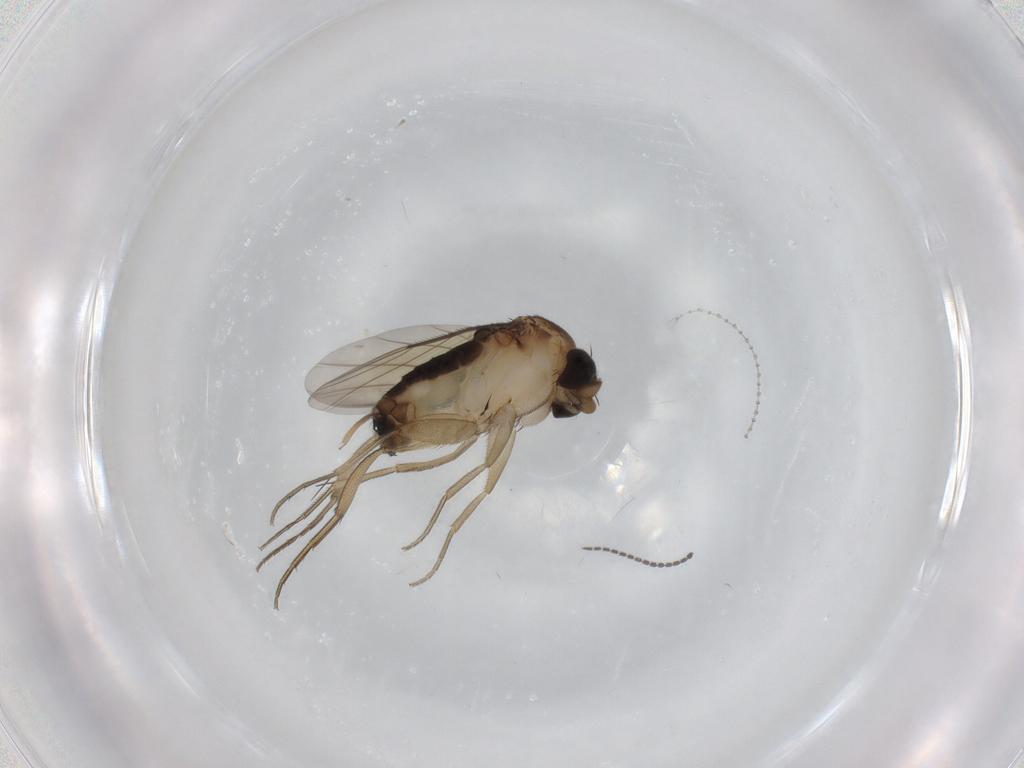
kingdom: Animalia
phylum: Arthropoda
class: Insecta
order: Diptera
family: Phoridae
